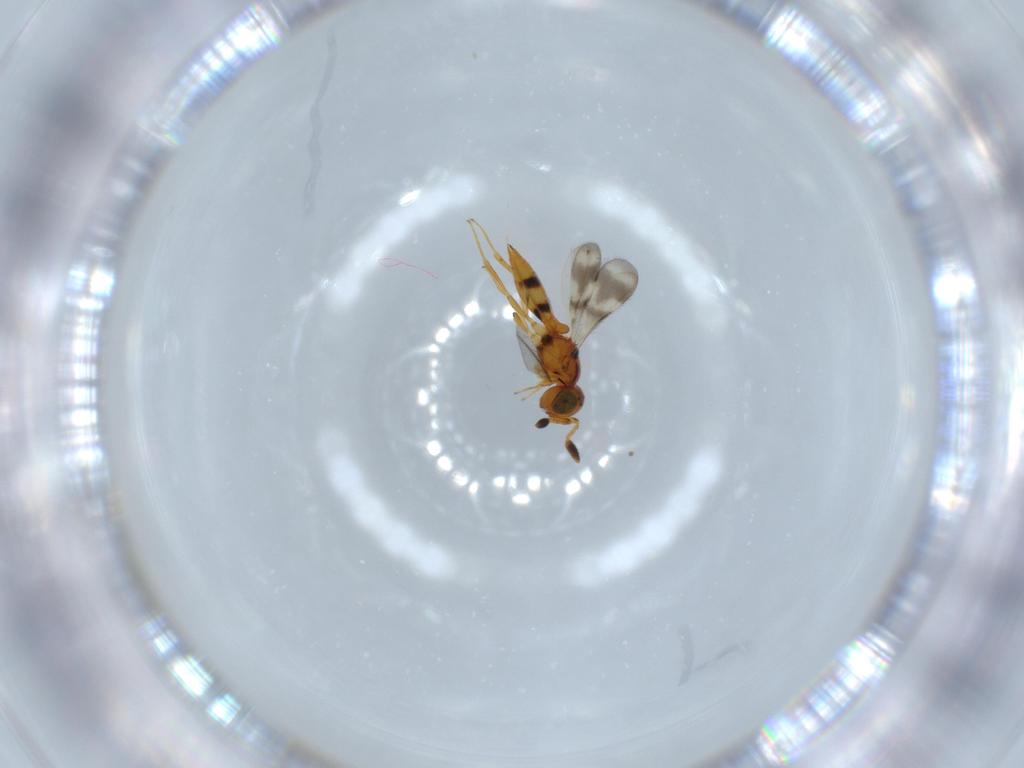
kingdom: Animalia
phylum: Arthropoda
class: Insecta
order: Hymenoptera
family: Scelionidae
